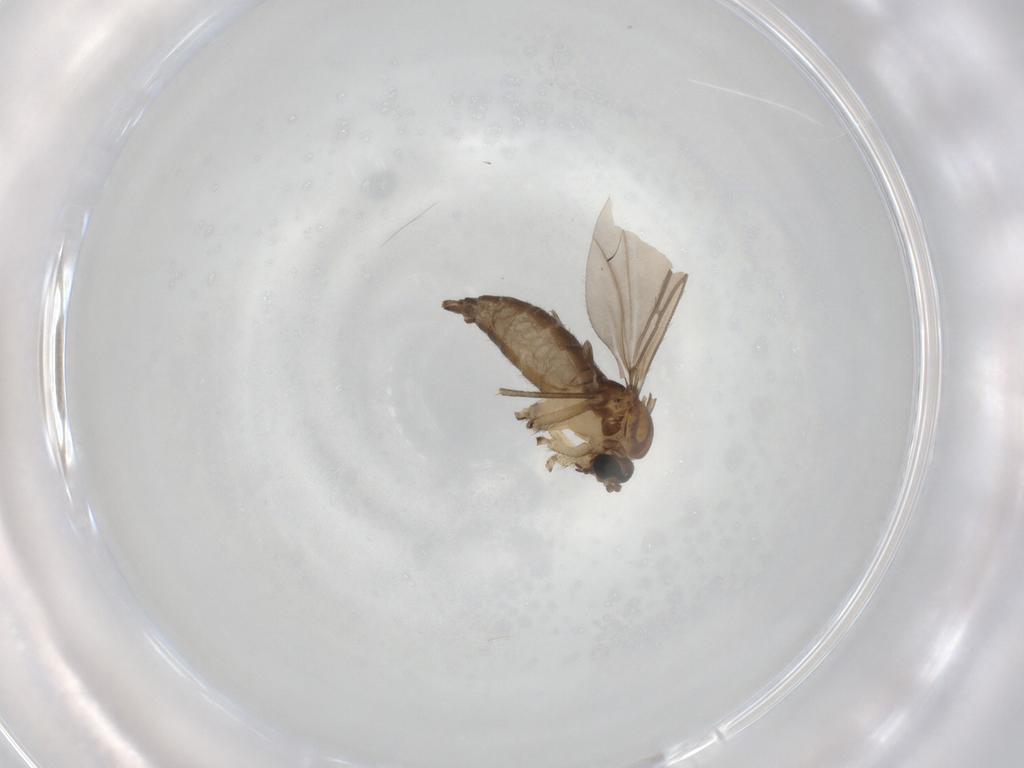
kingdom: Animalia
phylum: Arthropoda
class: Insecta
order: Diptera
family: Sciaridae
